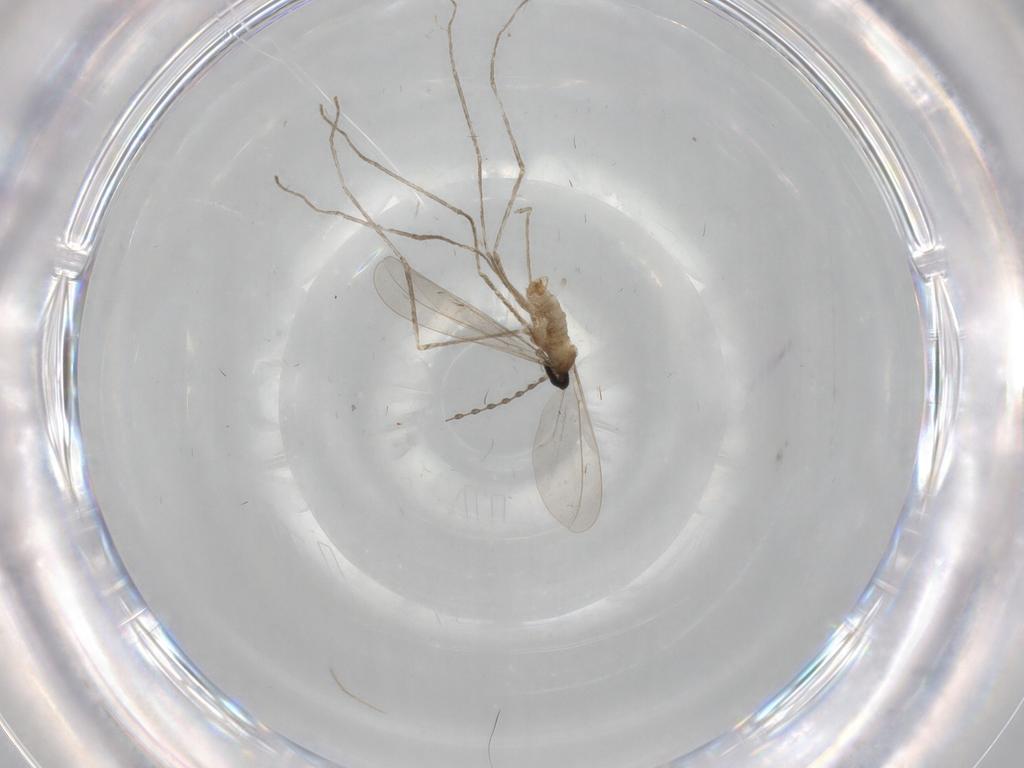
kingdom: Animalia
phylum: Arthropoda
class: Insecta
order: Diptera
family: Cecidomyiidae
